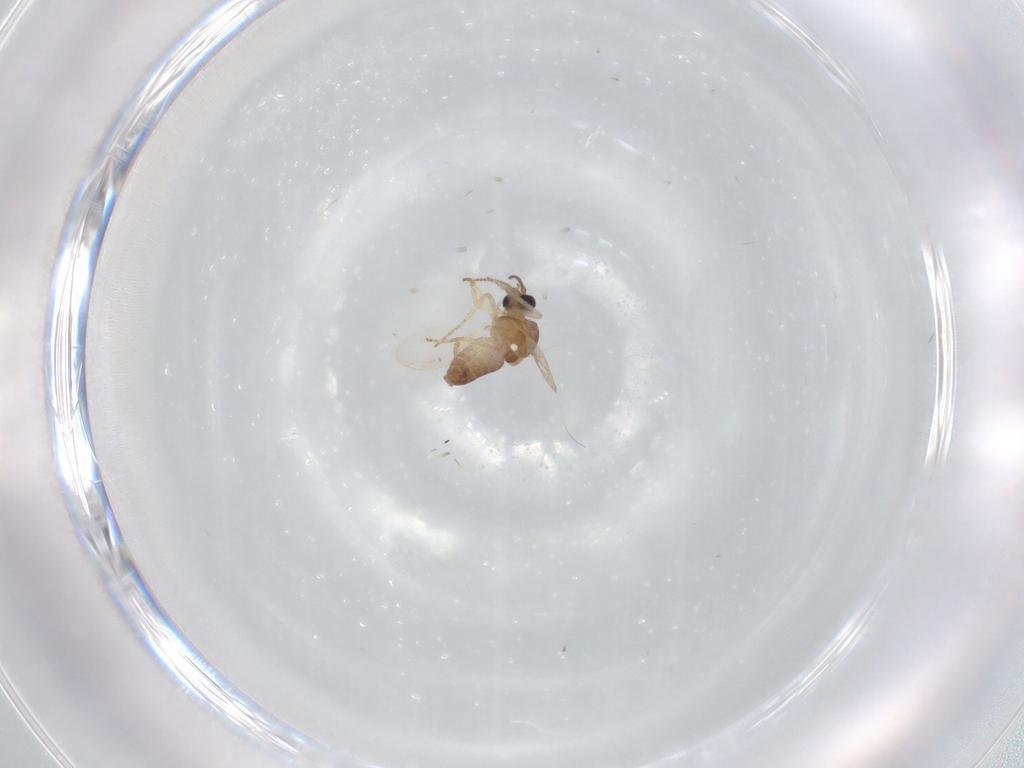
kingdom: Animalia
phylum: Arthropoda
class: Insecta
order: Diptera
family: Ceratopogonidae
